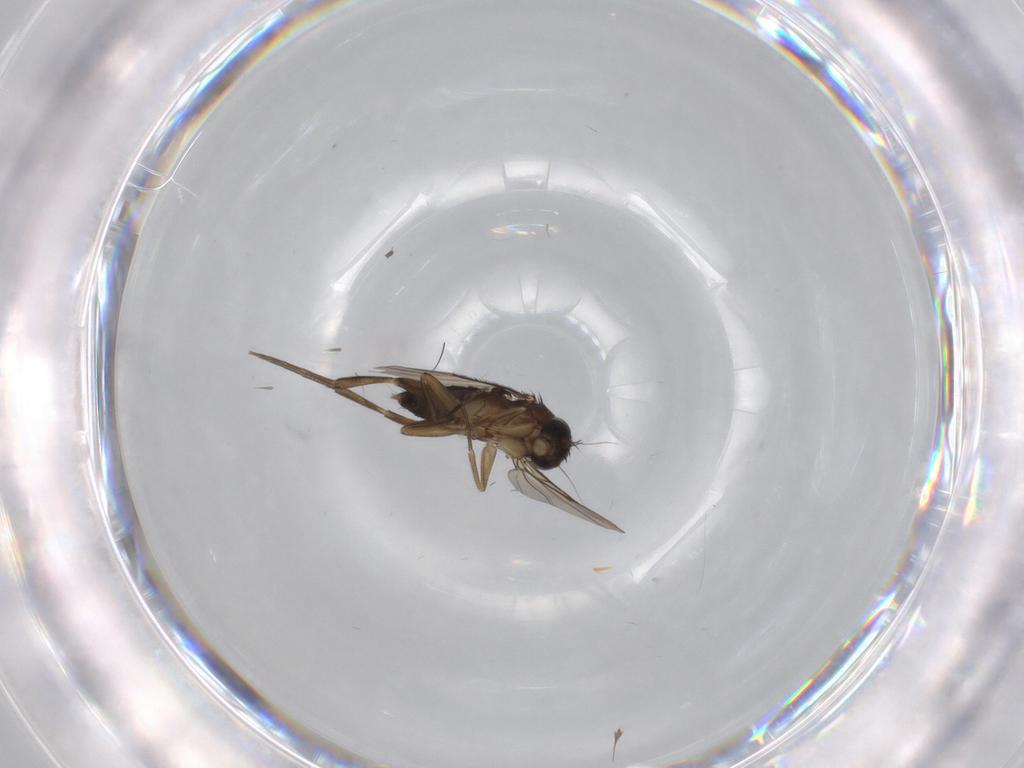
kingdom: Animalia
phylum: Arthropoda
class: Insecta
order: Diptera
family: Phoridae
